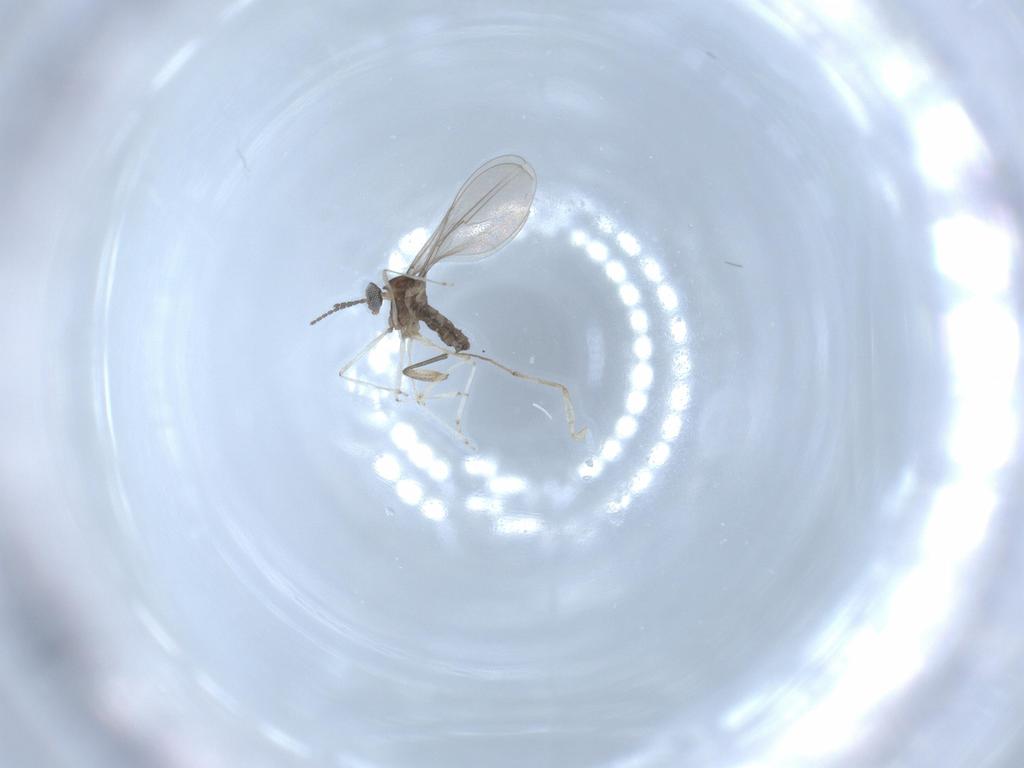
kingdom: Animalia
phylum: Arthropoda
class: Insecta
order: Diptera
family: Cecidomyiidae
